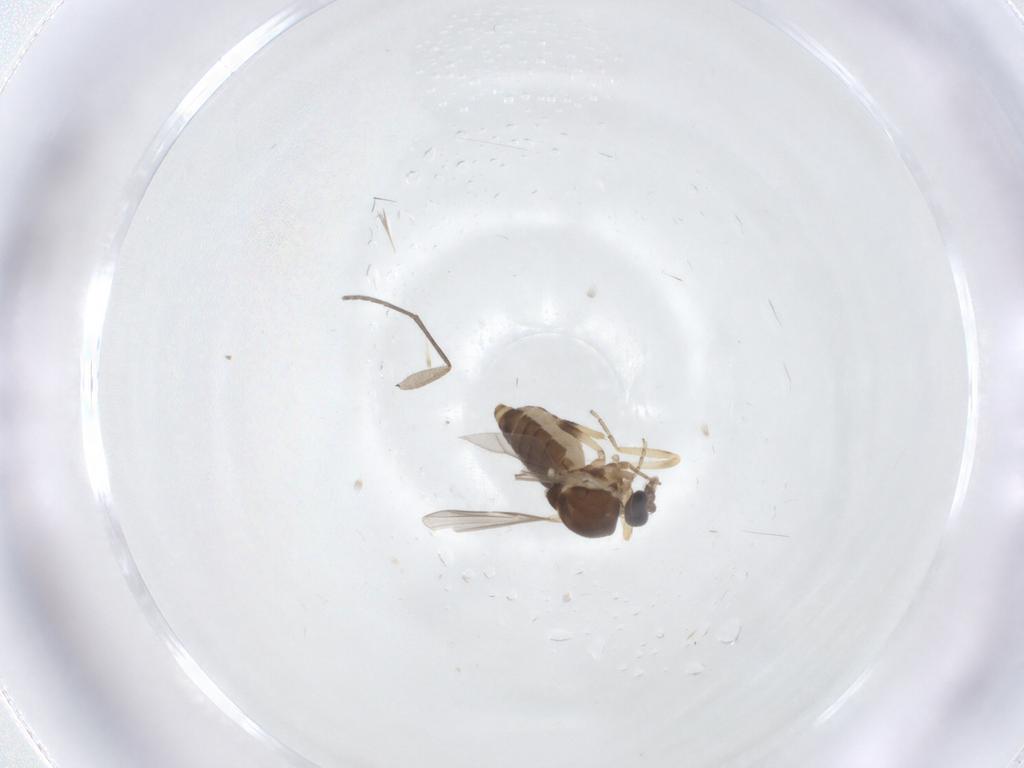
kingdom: Animalia
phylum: Arthropoda
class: Insecta
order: Diptera
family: Ceratopogonidae
